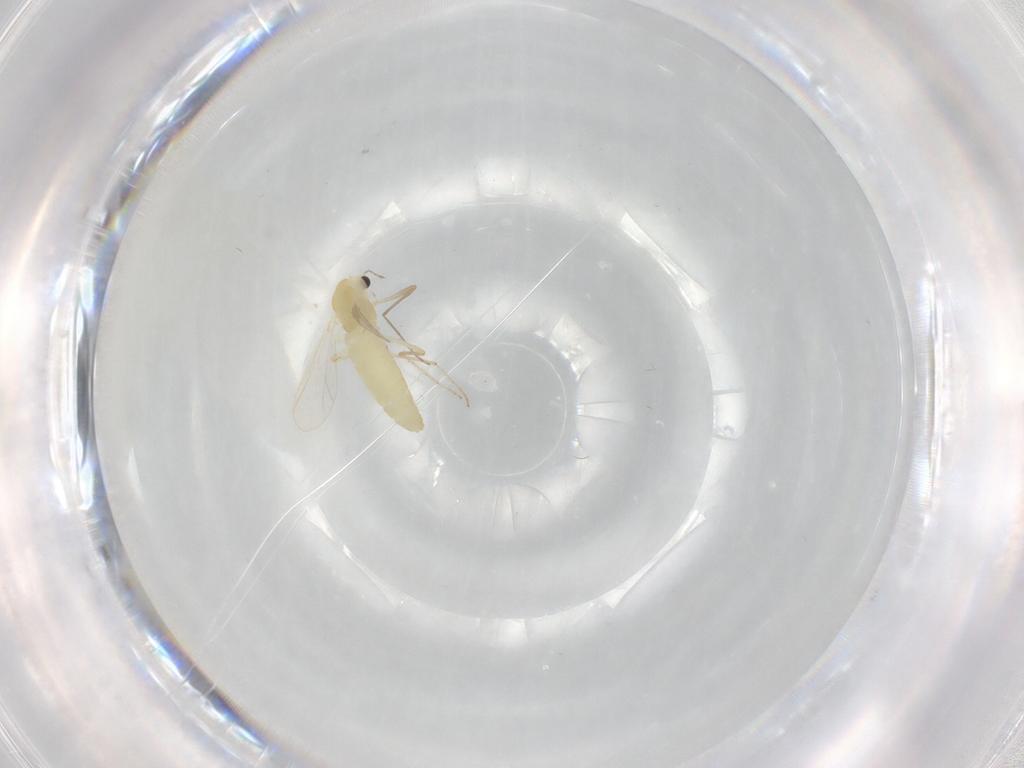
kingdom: Animalia
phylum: Arthropoda
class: Insecta
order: Diptera
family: Chironomidae
